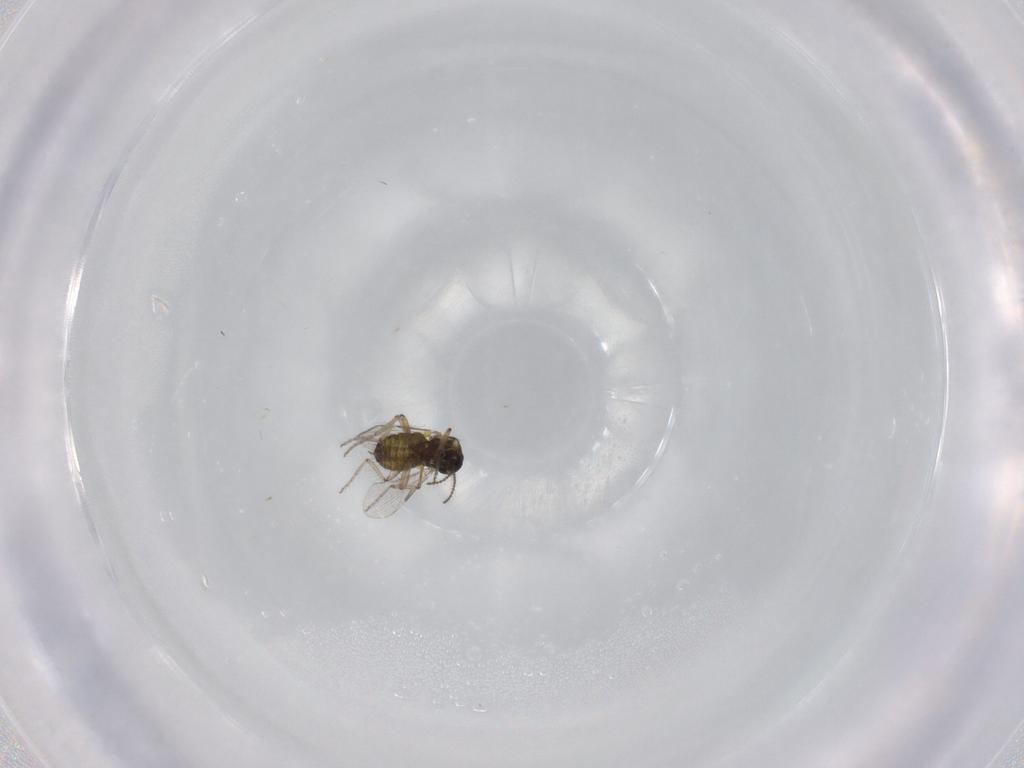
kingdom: Animalia
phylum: Arthropoda
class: Insecta
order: Diptera
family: Ceratopogonidae
